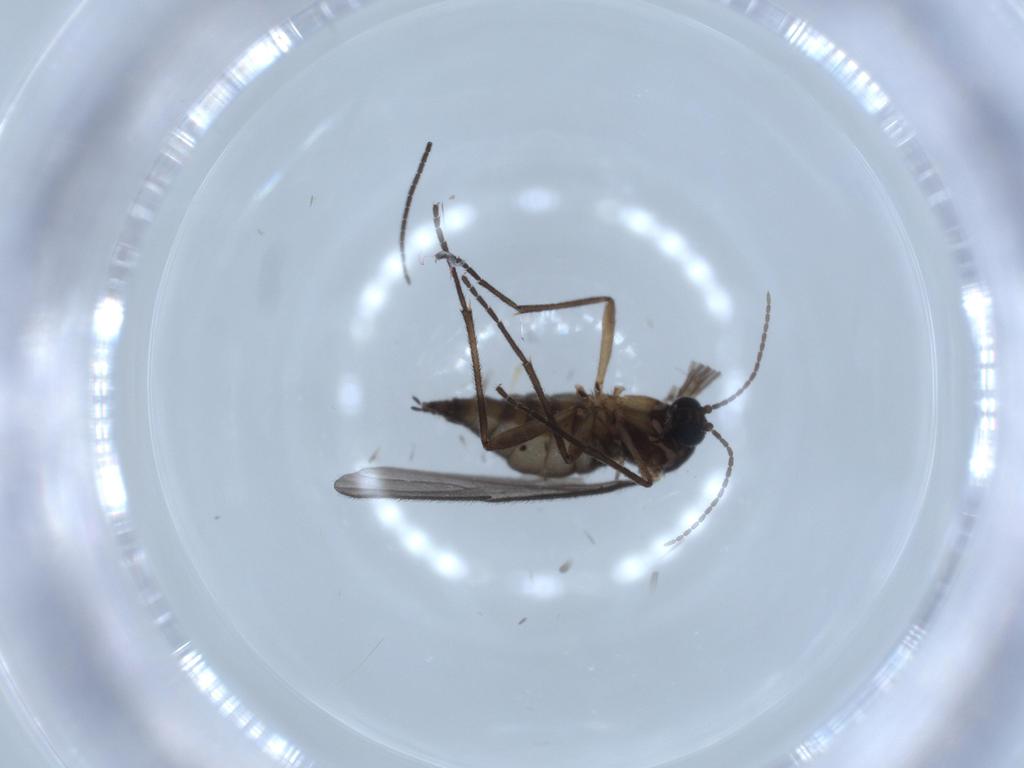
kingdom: Animalia
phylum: Arthropoda
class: Insecta
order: Diptera
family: Sciaridae
